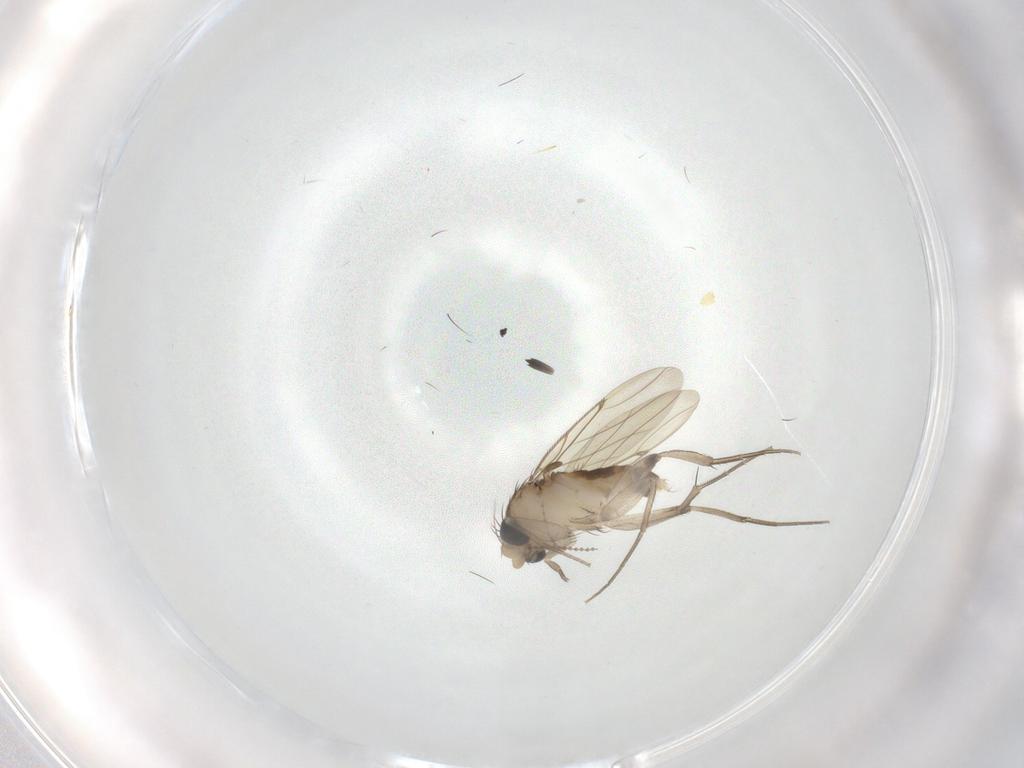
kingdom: Animalia
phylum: Arthropoda
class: Insecta
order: Diptera
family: Cecidomyiidae
